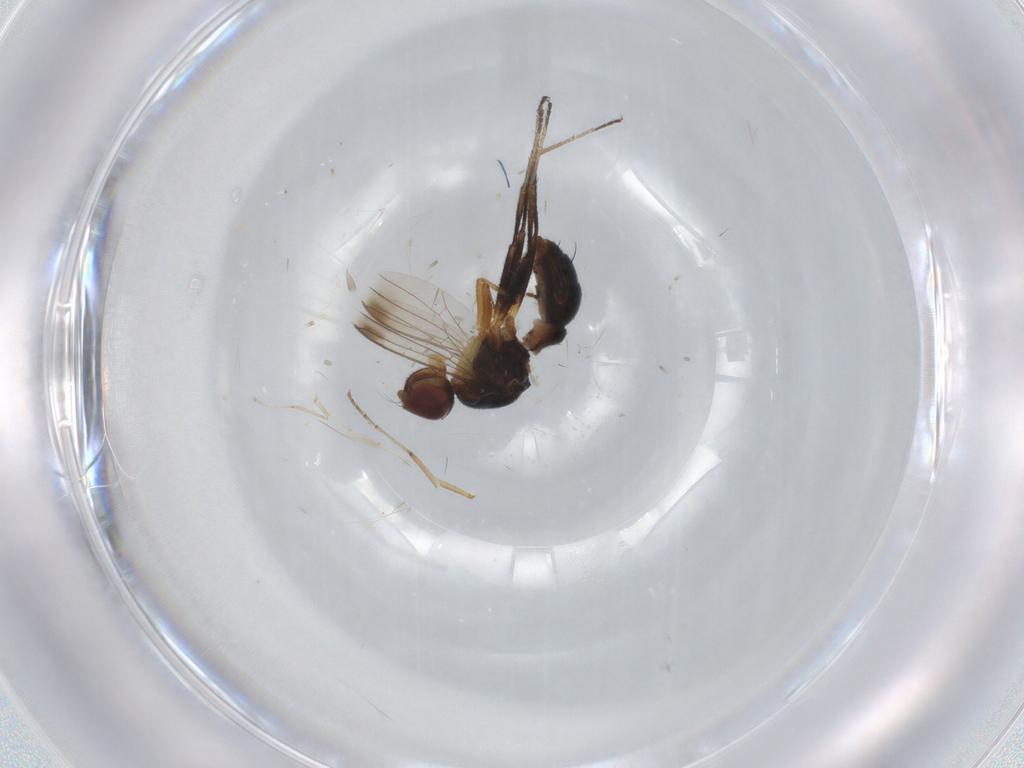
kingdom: Animalia
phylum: Arthropoda
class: Insecta
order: Diptera
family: Sepsidae
